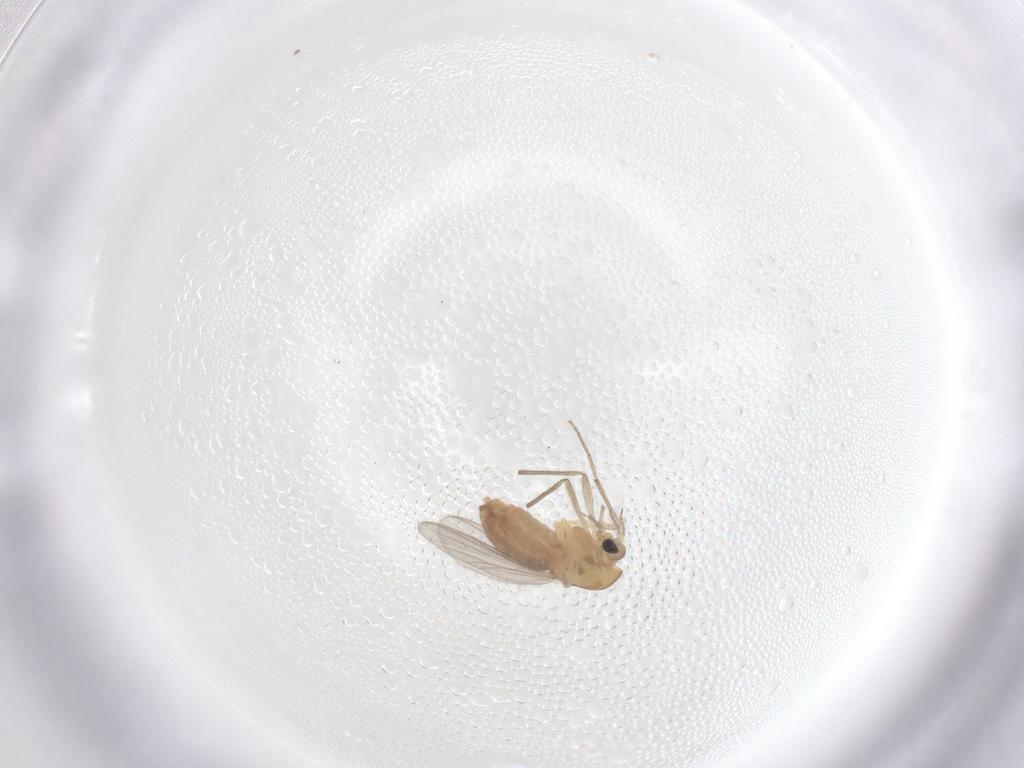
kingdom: Animalia
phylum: Arthropoda
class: Insecta
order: Diptera
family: Chironomidae
